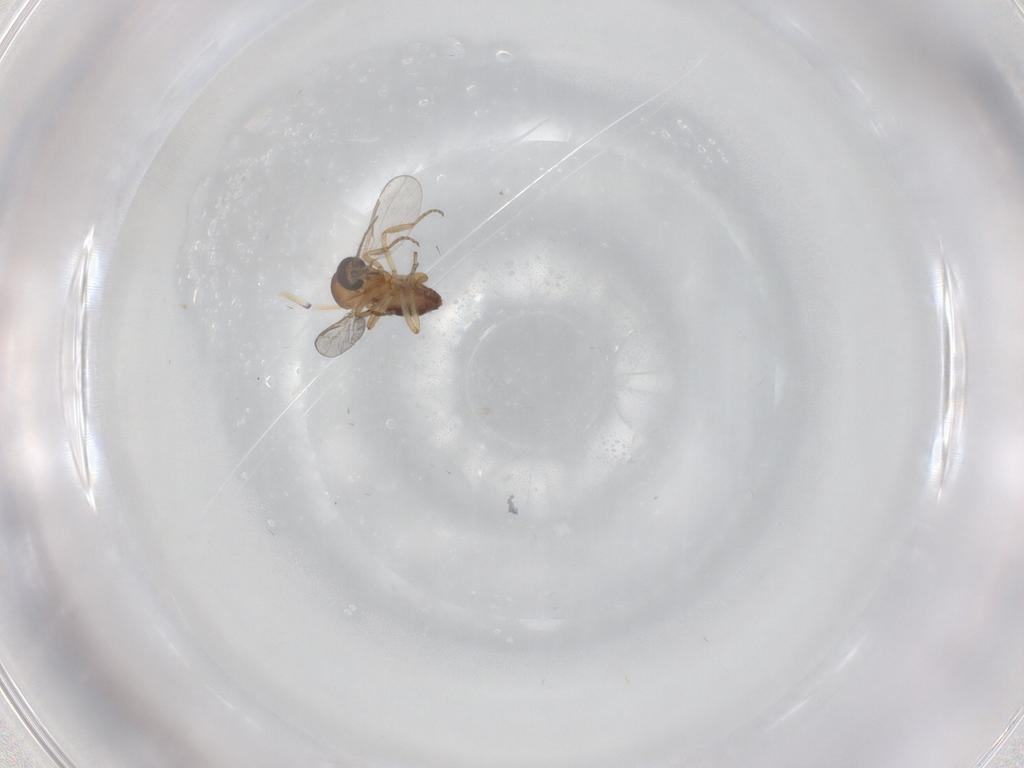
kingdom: Animalia
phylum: Arthropoda
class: Insecta
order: Diptera
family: Ceratopogonidae
